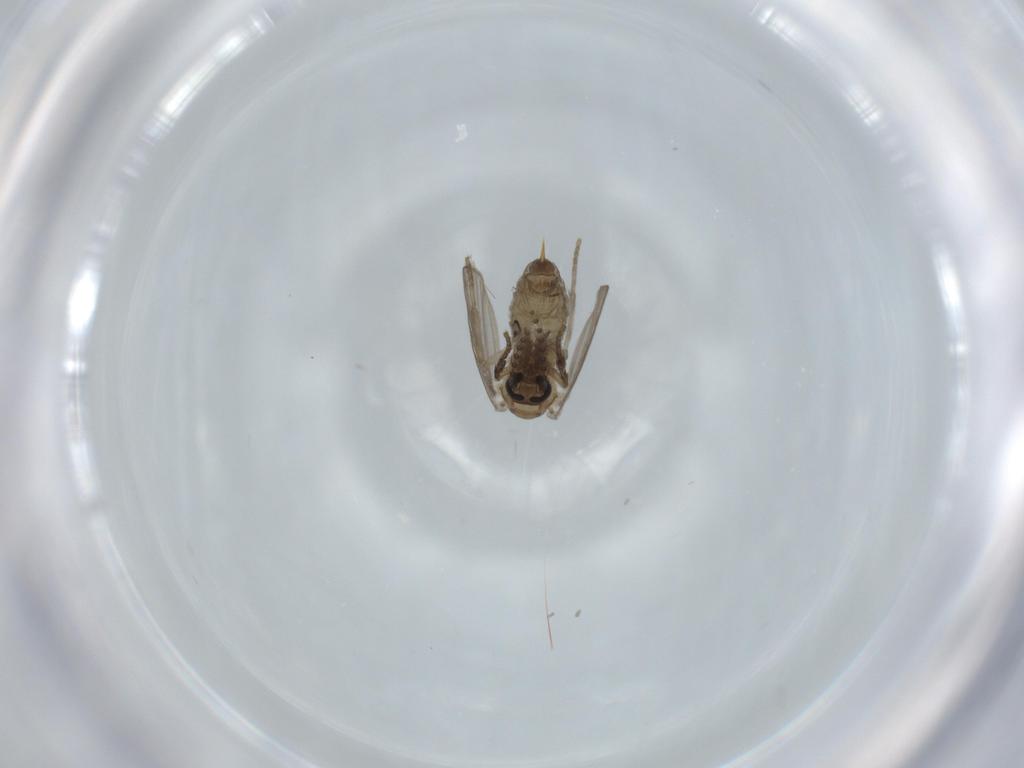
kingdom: Animalia
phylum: Arthropoda
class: Insecta
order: Diptera
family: Psychodidae
